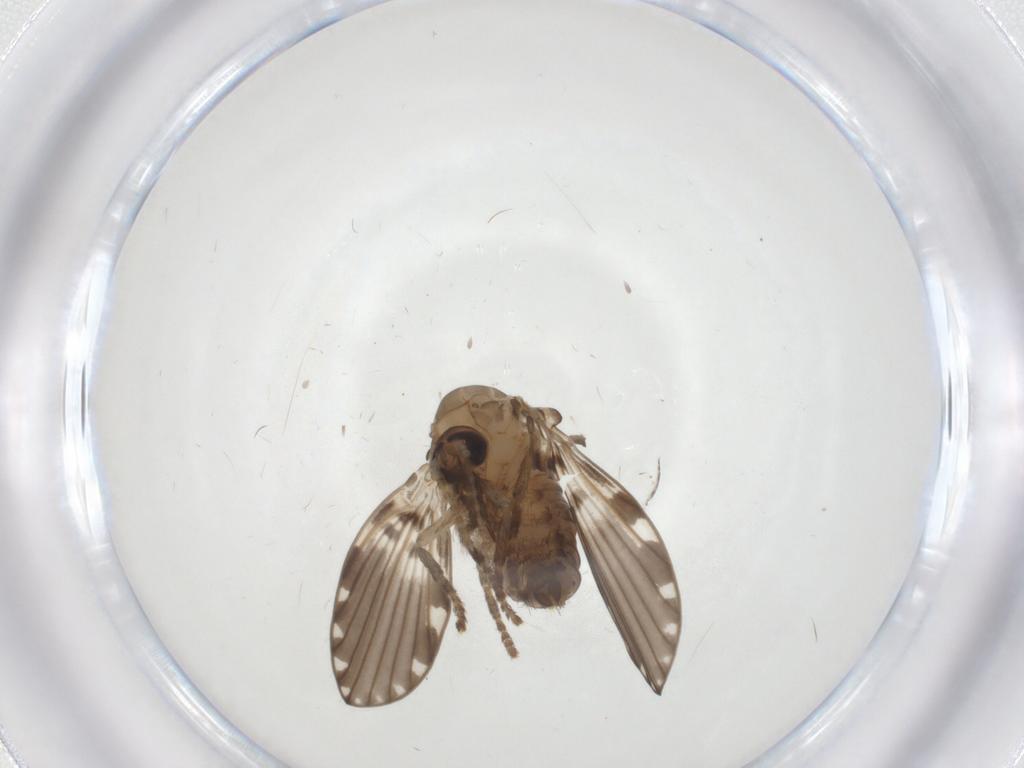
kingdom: Animalia
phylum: Arthropoda
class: Insecta
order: Diptera
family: Psychodidae
